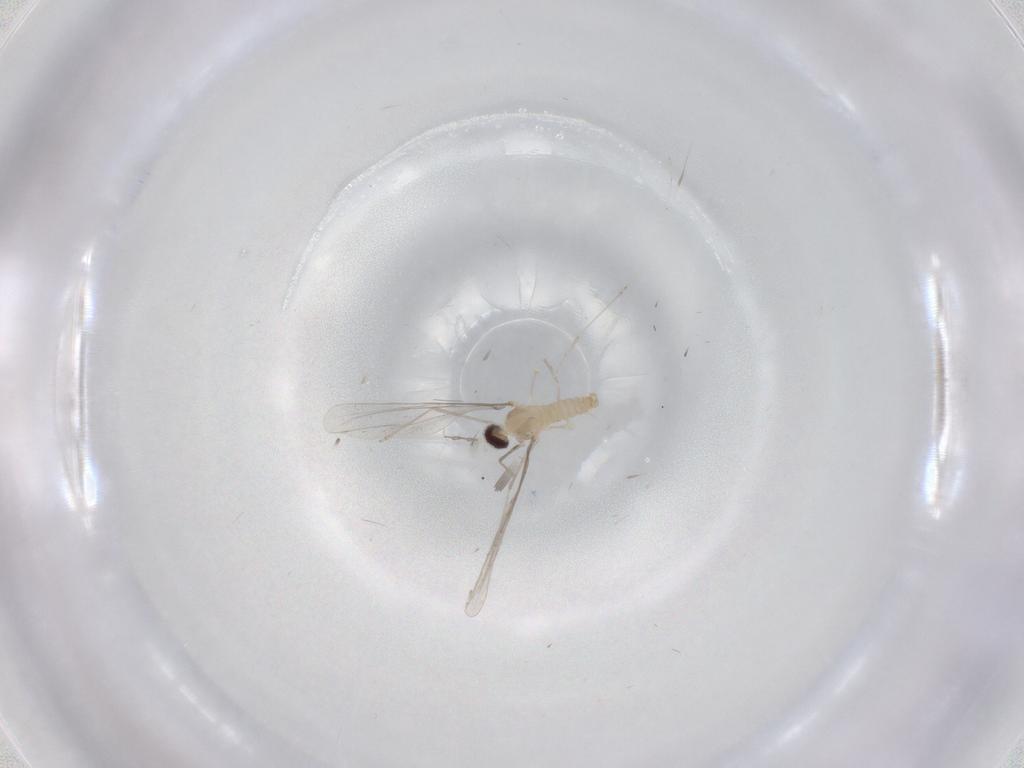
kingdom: Animalia
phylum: Arthropoda
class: Insecta
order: Diptera
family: Cecidomyiidae
